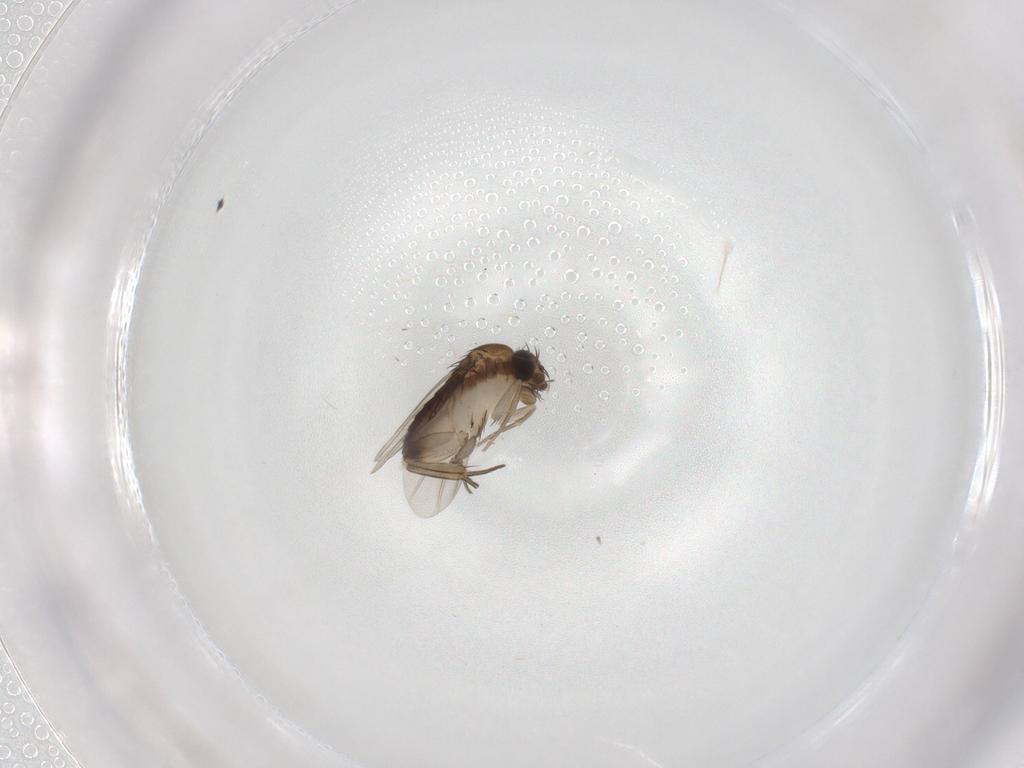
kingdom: Animalia
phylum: Arthropoda
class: Insecta
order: Diptera
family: Phoridae
